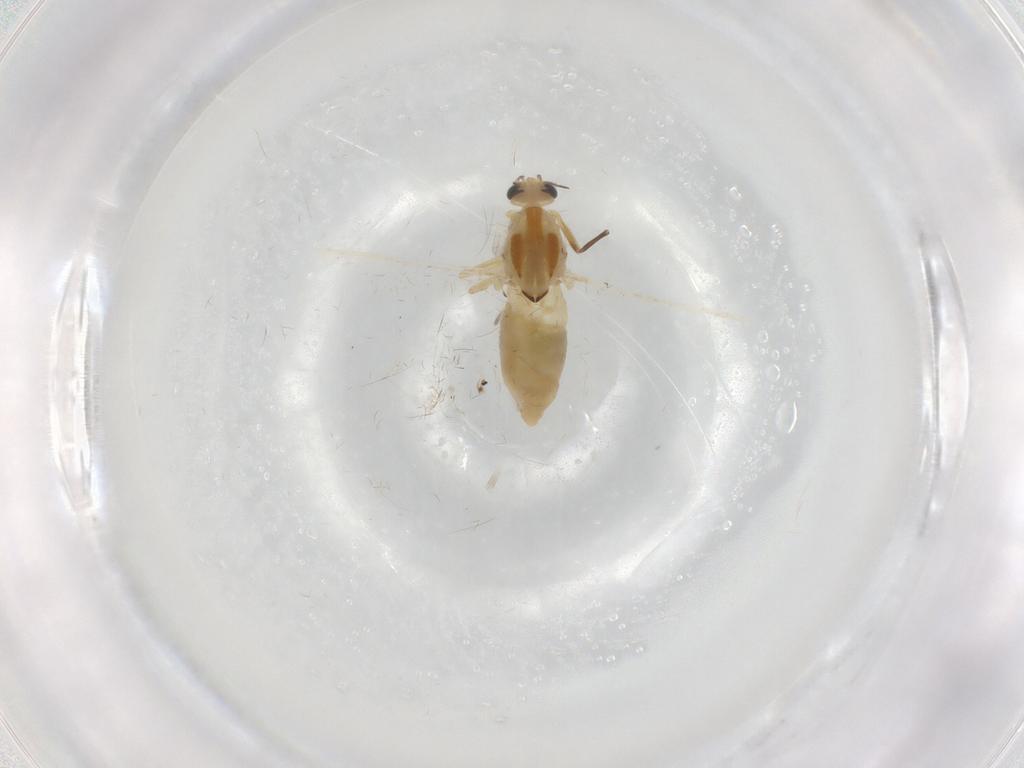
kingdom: Animalia
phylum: Arthropoda
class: Insecta
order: Diptera
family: Chironomidae
